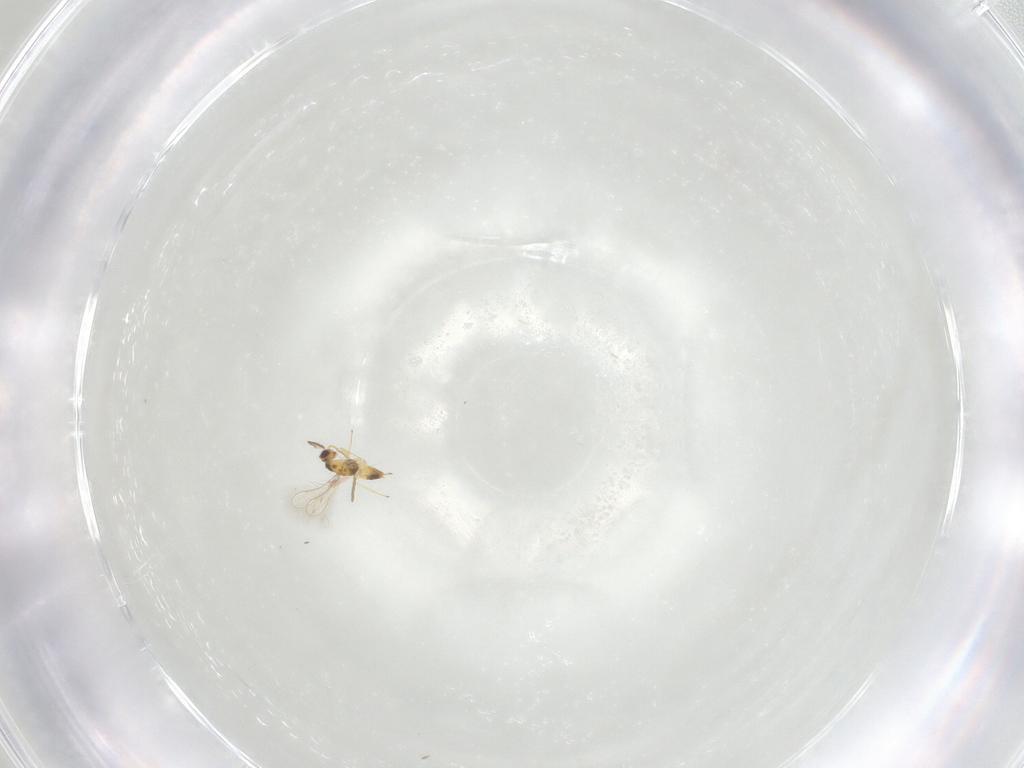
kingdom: Animalia
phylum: Arthropoda
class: Insecta
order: Hymenoptera
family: Mymaridae
